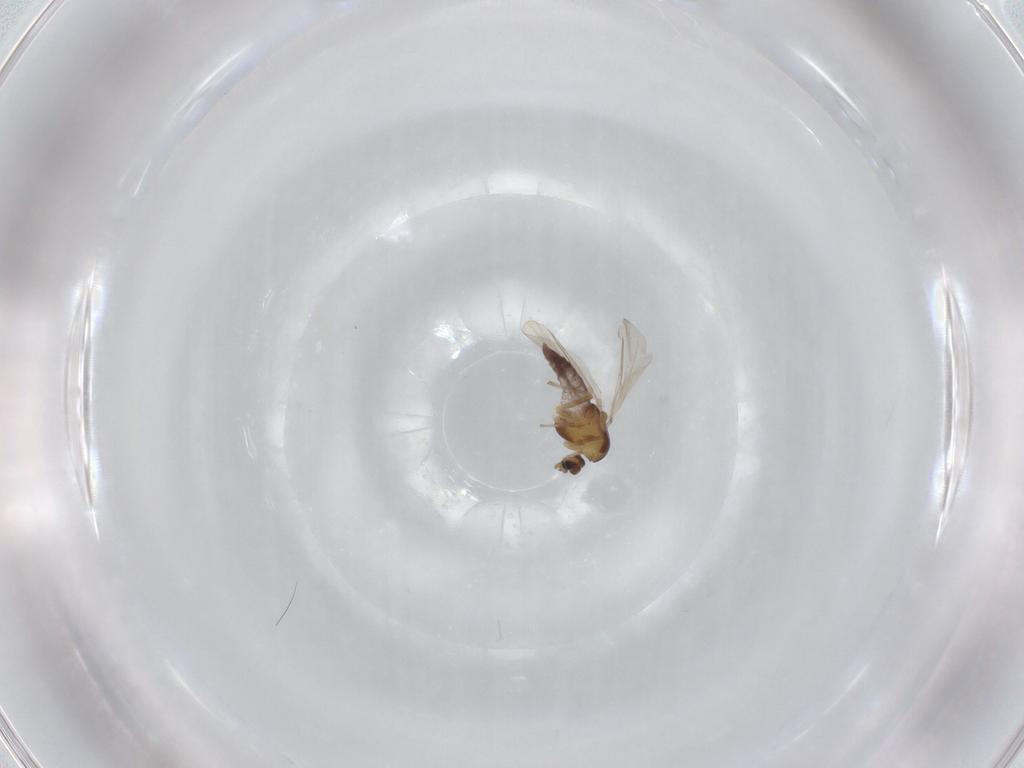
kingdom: Animalia
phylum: Arthropoda
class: Insecta
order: Diptera
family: Chironomidae
